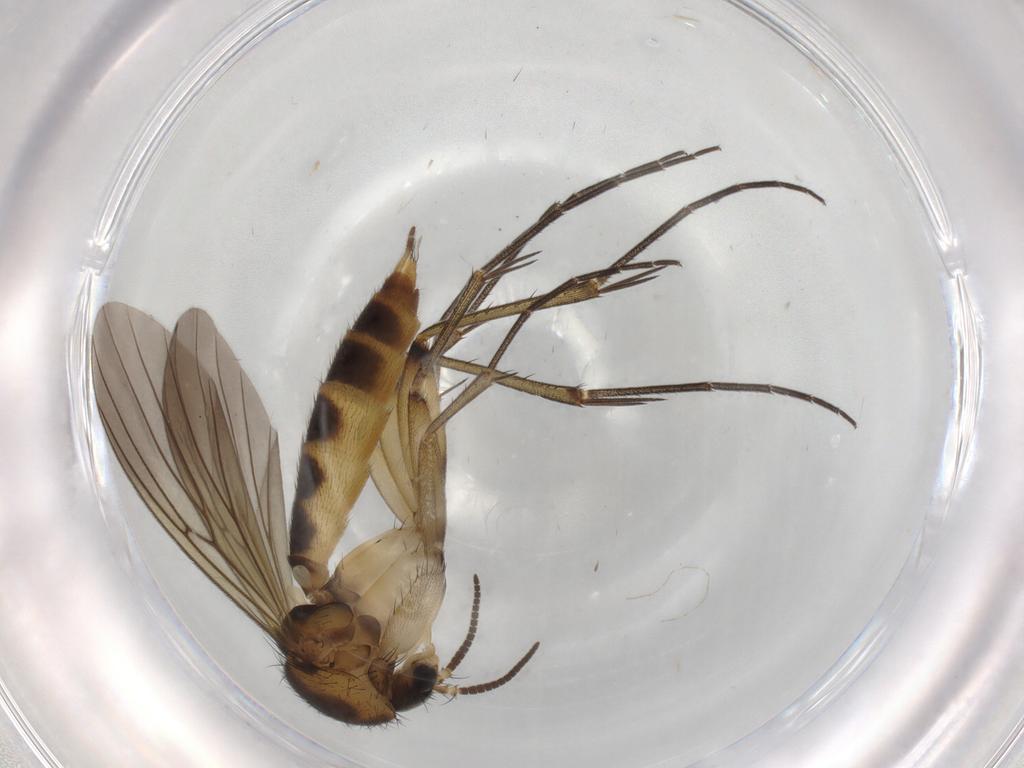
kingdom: Animalia
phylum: Arthropoda
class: Insecta
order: Diptera
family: Mycetophilidae
